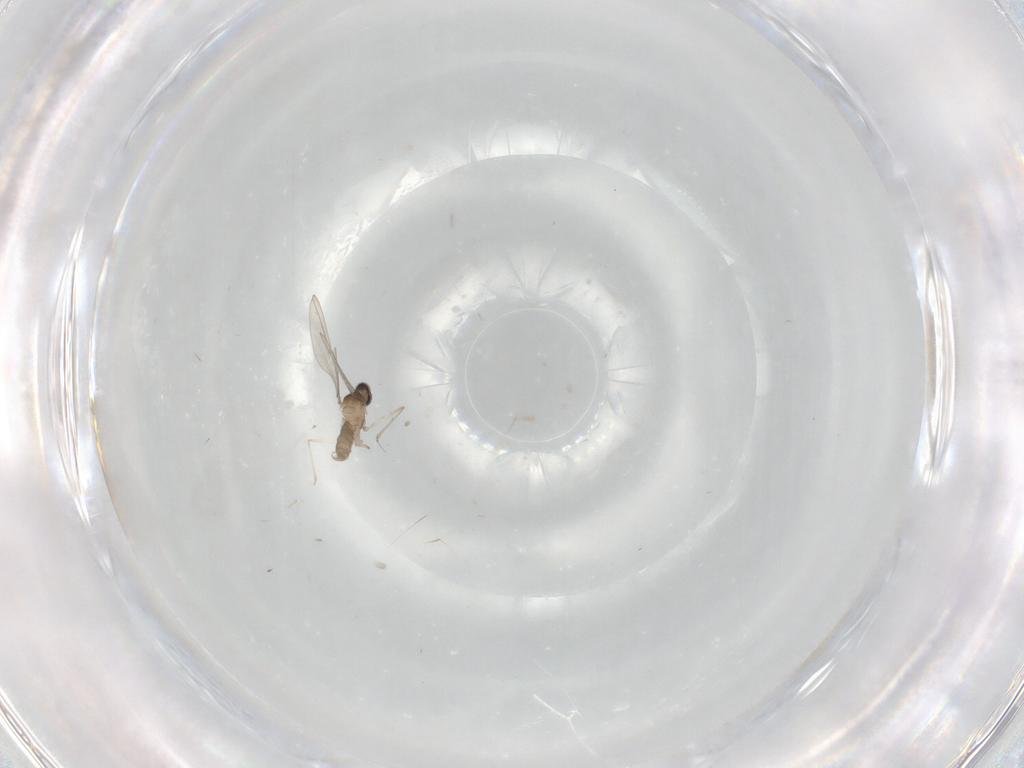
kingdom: Animalia
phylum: Arthropoda
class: Insecta
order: Diptera
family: Cecidomyiidae
